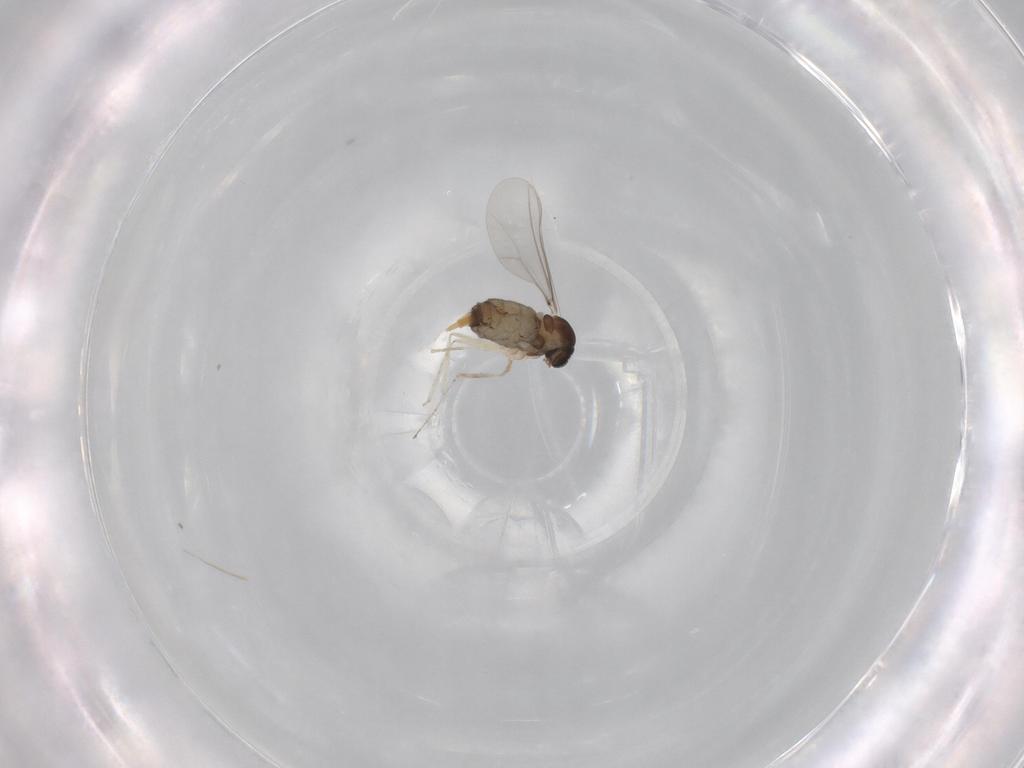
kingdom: Animalia
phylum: Arthropoda
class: Insecta
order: Diptera
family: Cecidomyiidae
